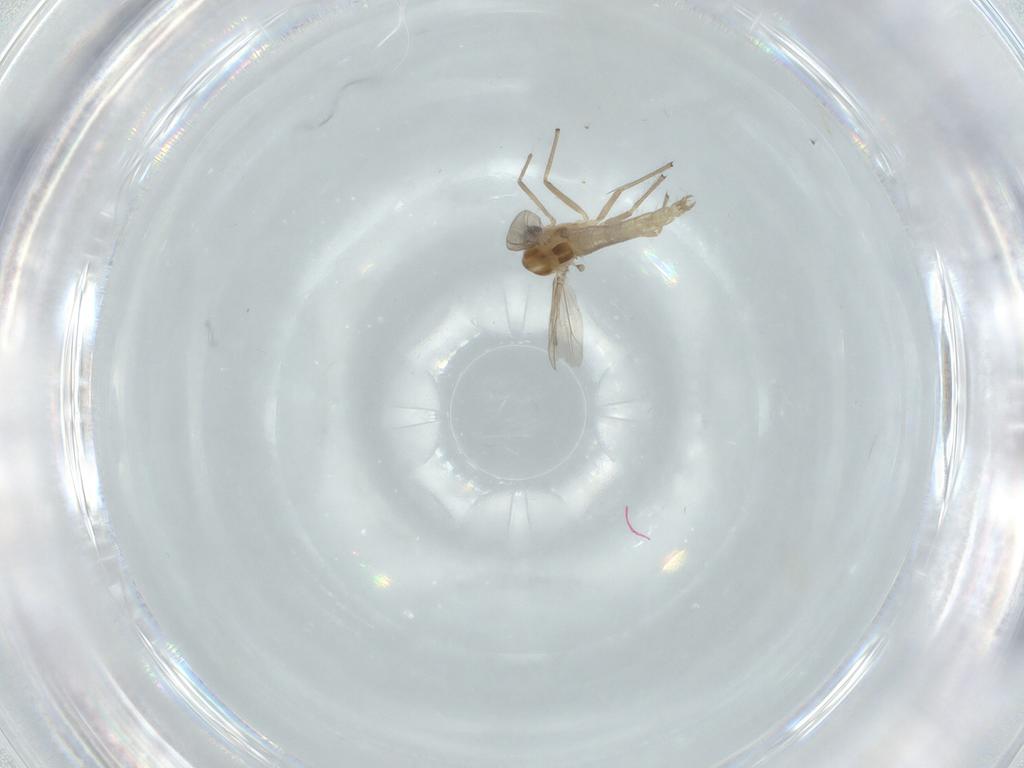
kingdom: Animalia
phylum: Arthropoda
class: Insecta
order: Diptera
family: Chironomidae
